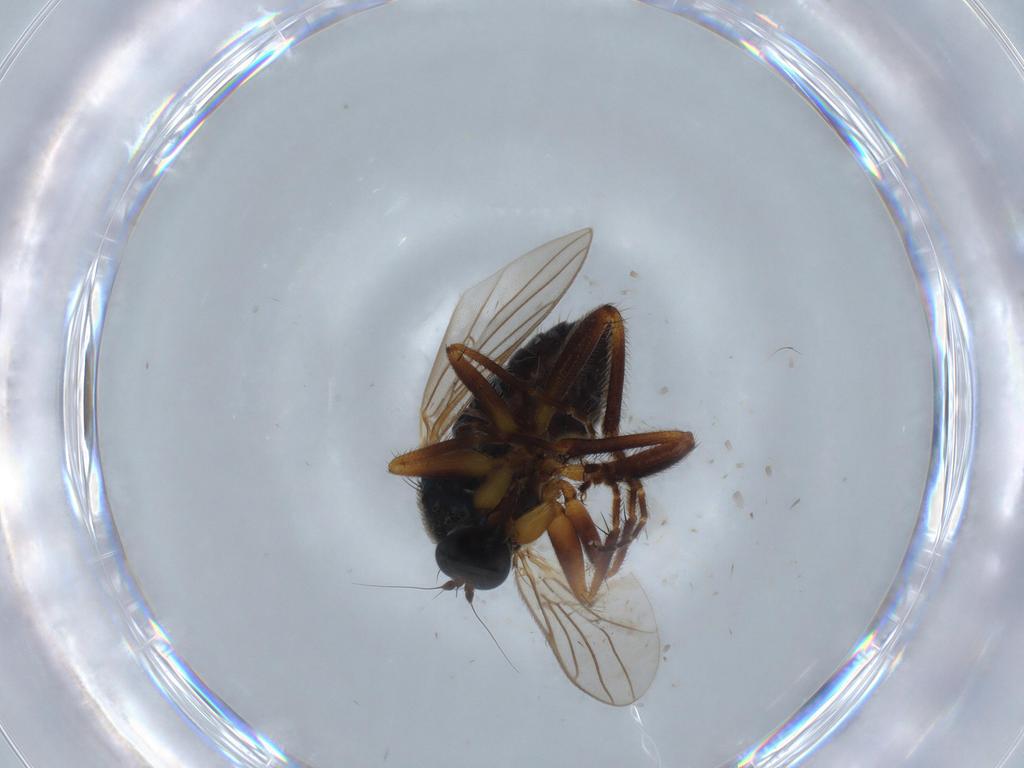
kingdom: Animalia
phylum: Arthropoda
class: Insecta
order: Diptera
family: Hybotidae
